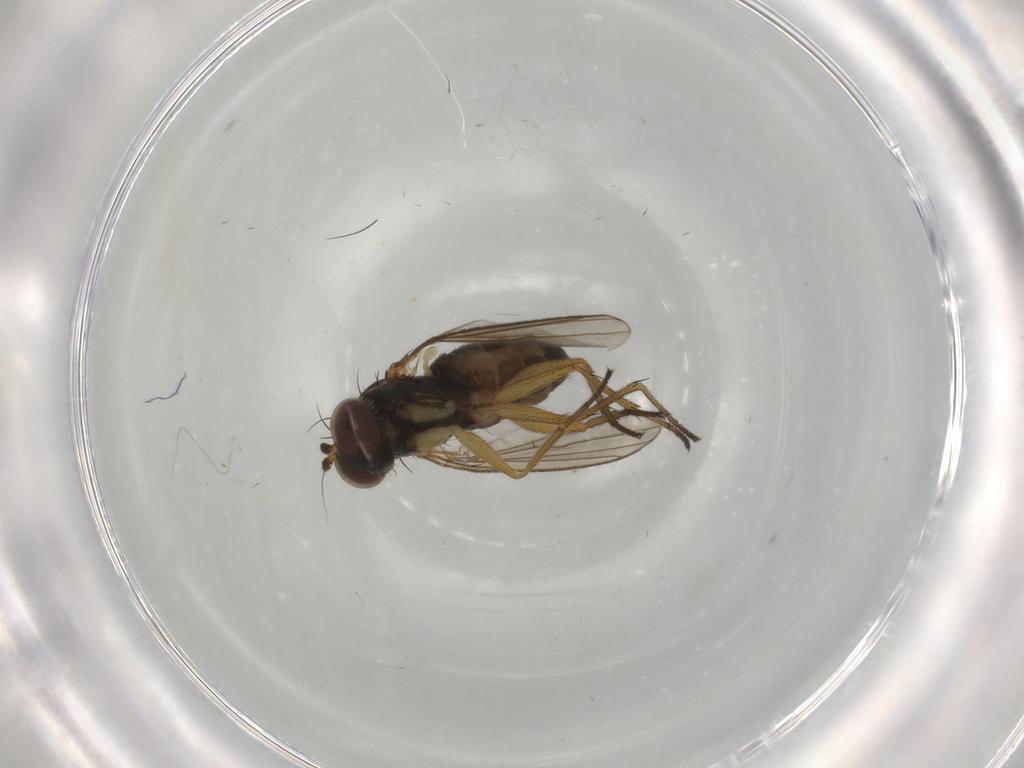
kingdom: Animalia
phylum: Arthropoda
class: Insecta
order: Diptera
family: Dolichopodidae
